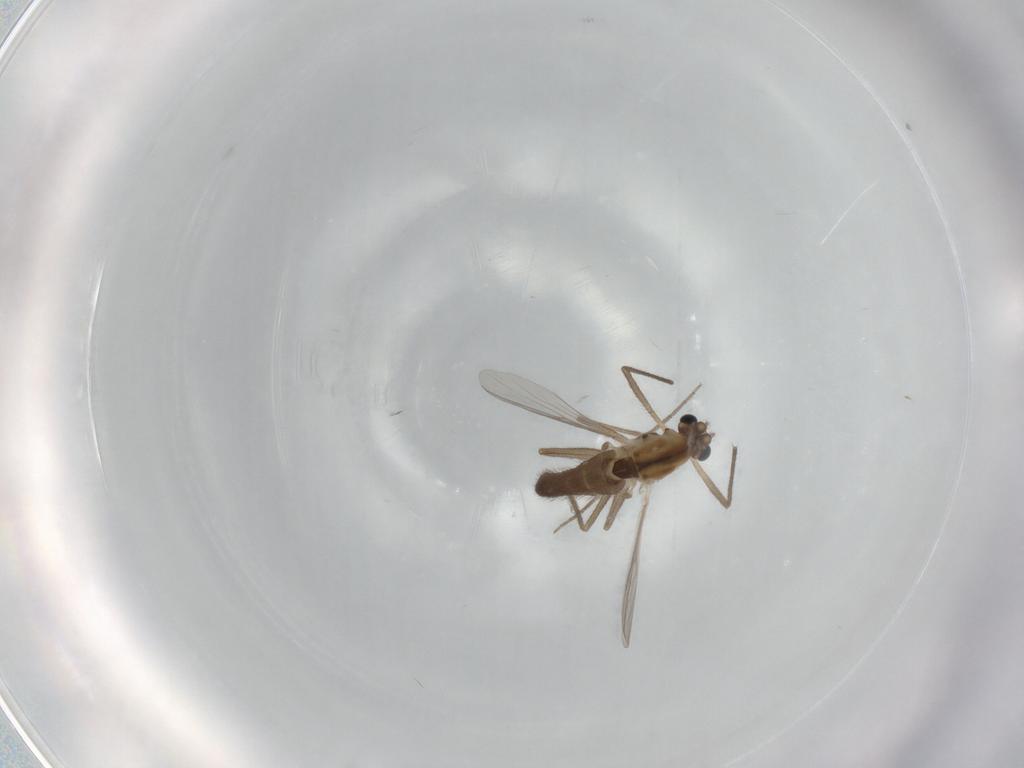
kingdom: Animalia
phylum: Arthropoda
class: Insecta
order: Diptera
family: Chironomidae
